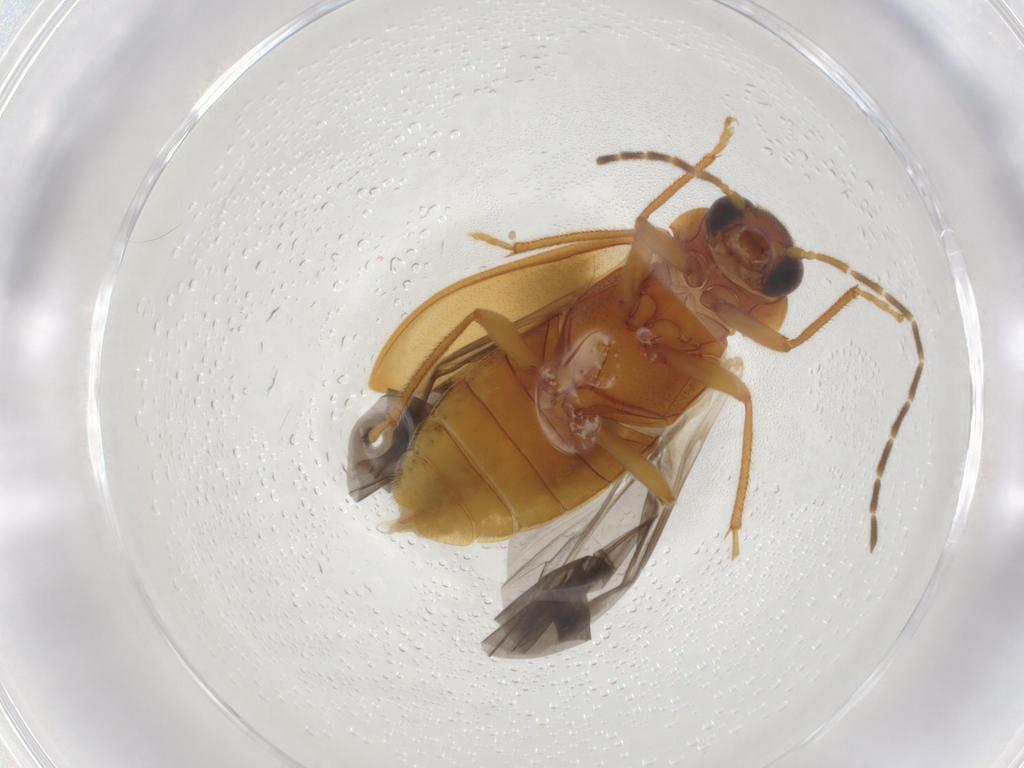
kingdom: Animalia
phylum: Arthropoda
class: Insecta
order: Coleoptera
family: Ptilodactylidae
